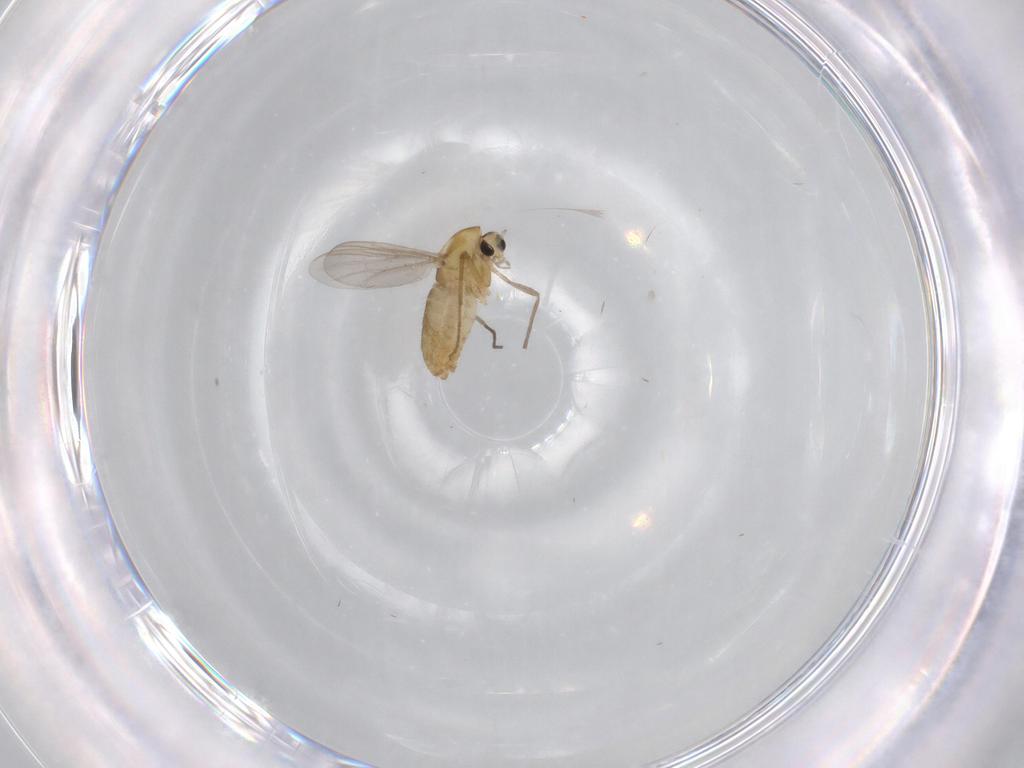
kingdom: Animalia
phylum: Arthropoda
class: Insecta
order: Diptera
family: Chironomidae
